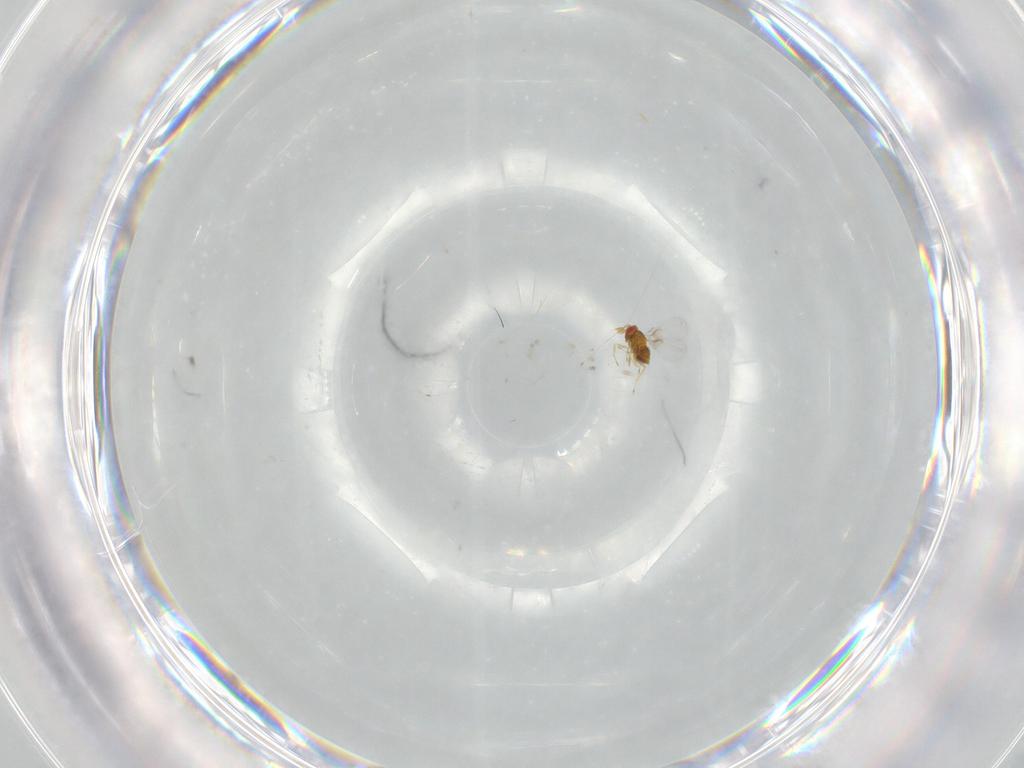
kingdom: Animalia
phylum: Arthropoda
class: Insecta
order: Hymenoptera
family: Trichogrammatidae
